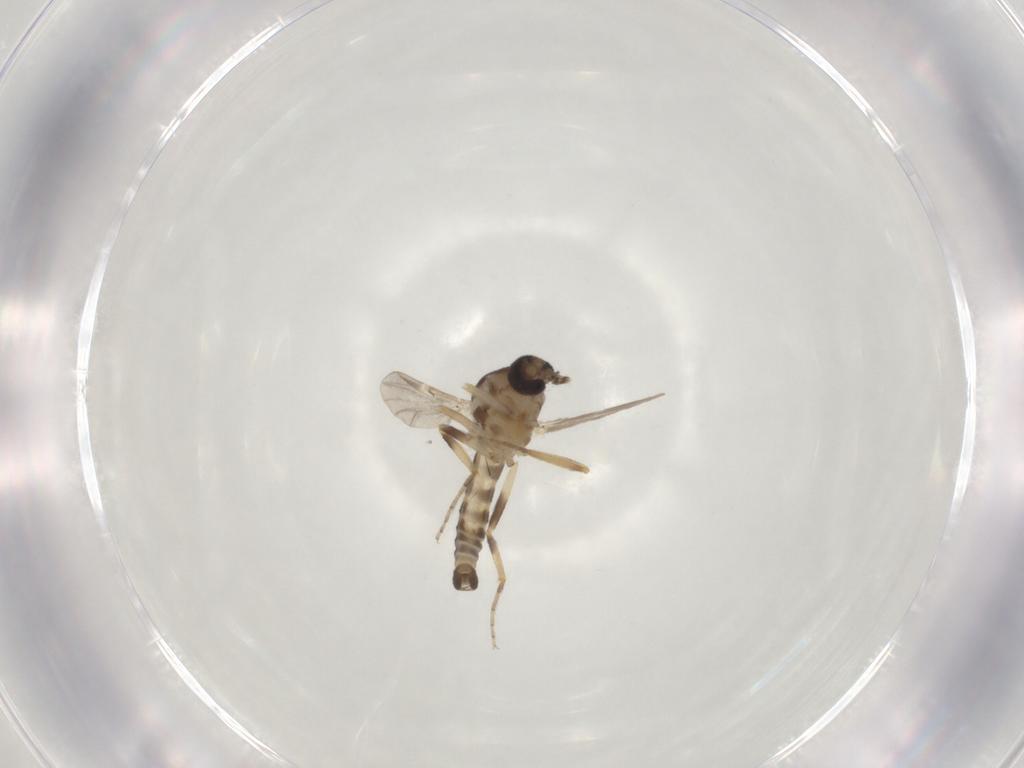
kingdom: Animalia
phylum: Arthropoda
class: Insecta
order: Diptera
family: Ceratopogonidae
